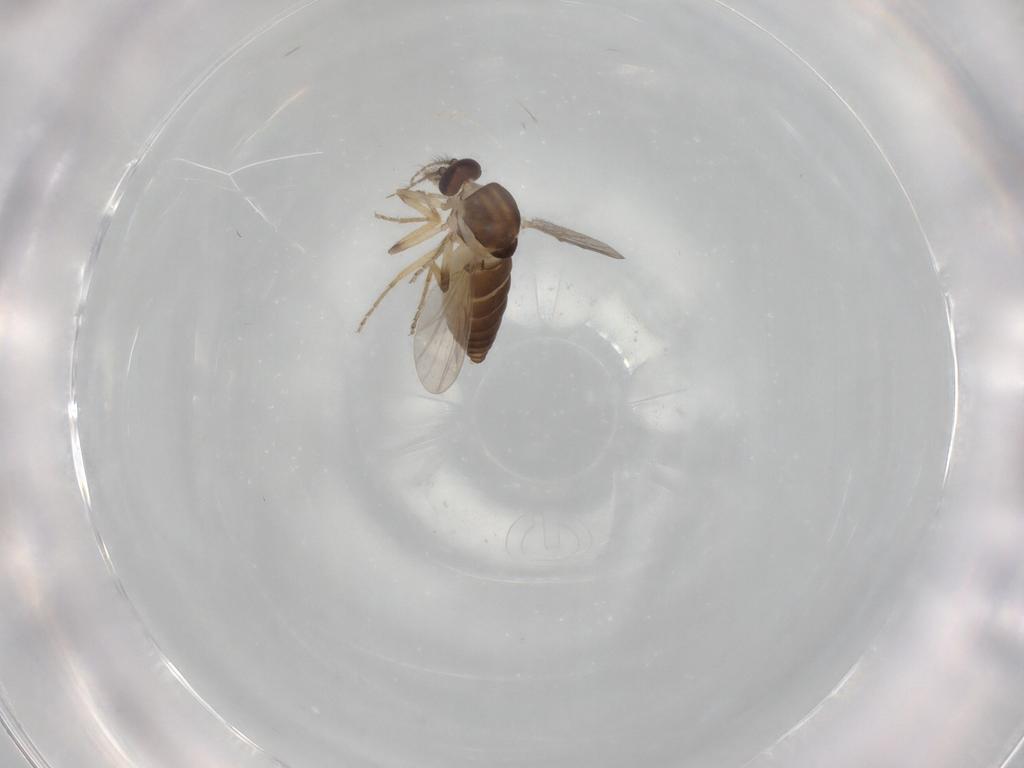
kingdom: Animalia
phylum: Arthropoda
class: Insecta
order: Diptera
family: Ceratopogonidae
